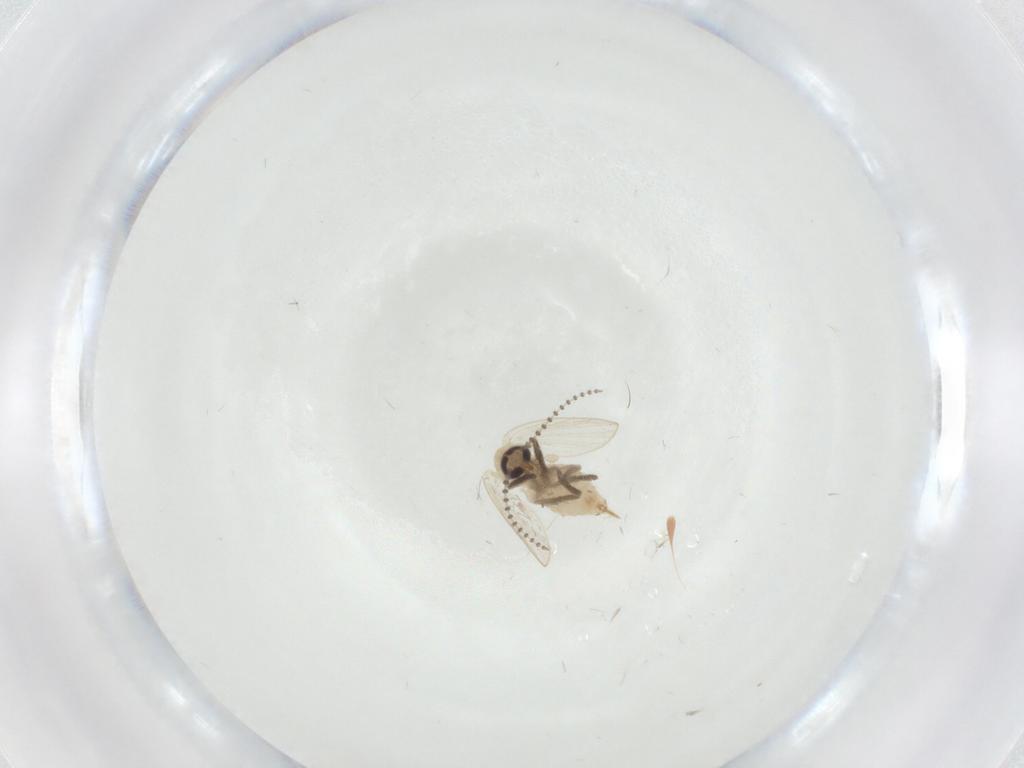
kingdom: Animalia
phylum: Arthropoda
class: Insecta
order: Diptera
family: Psychodidae
